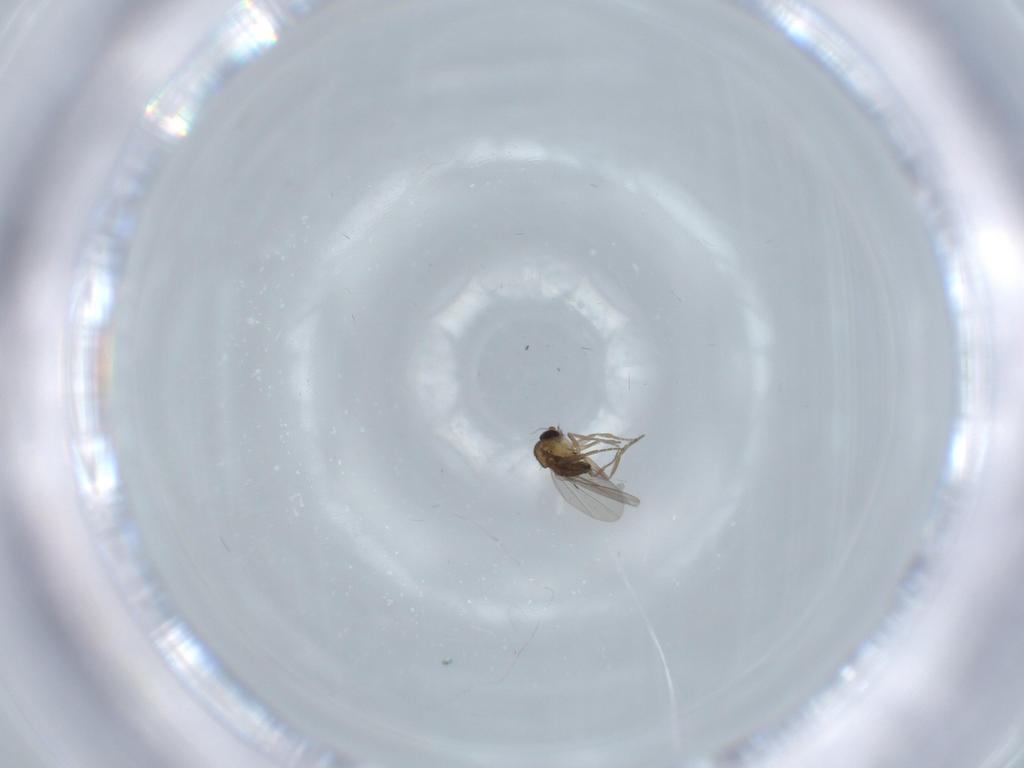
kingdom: Animalia
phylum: Arthropoda
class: Insecta
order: Diptera
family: Phoridae
